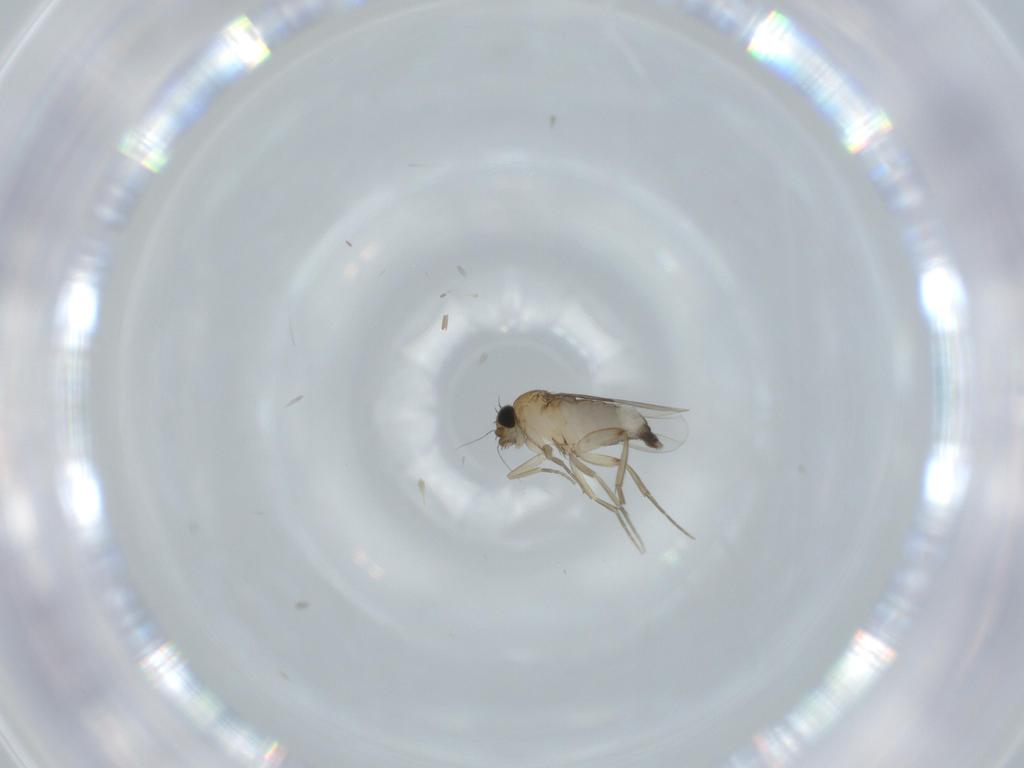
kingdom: Animalia
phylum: Arthropoda
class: Insecta
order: Diptera
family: Phoridae
